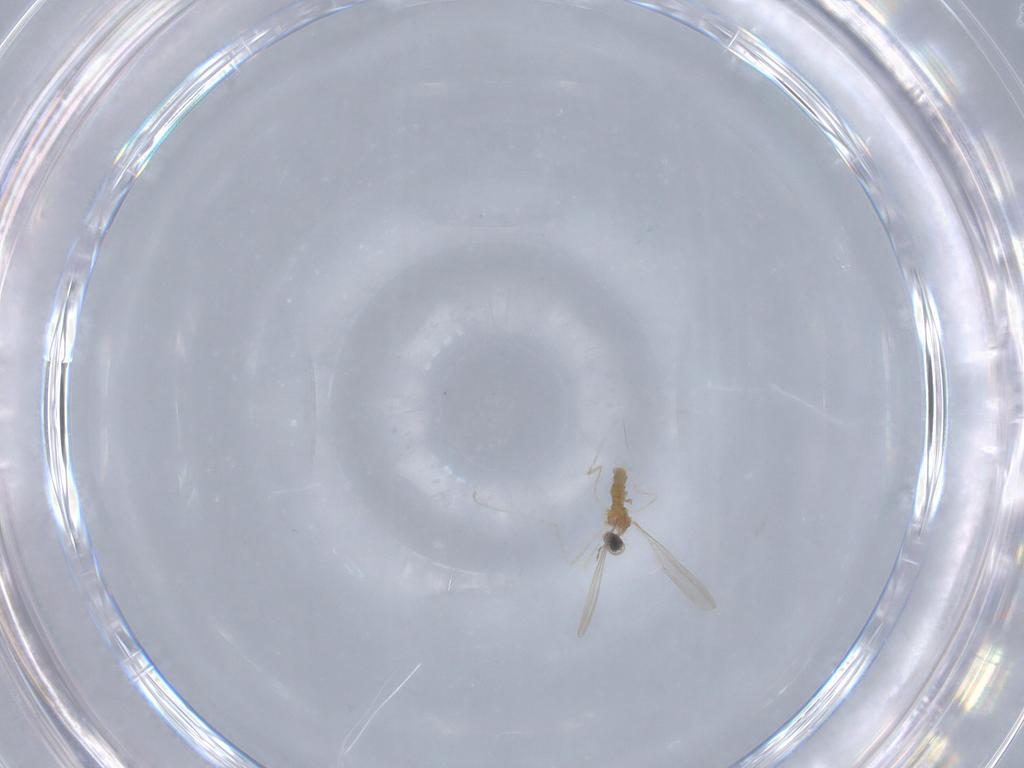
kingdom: Animalia
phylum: Arthropoda
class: Insecta
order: Diptera
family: Cecidomyiidae
